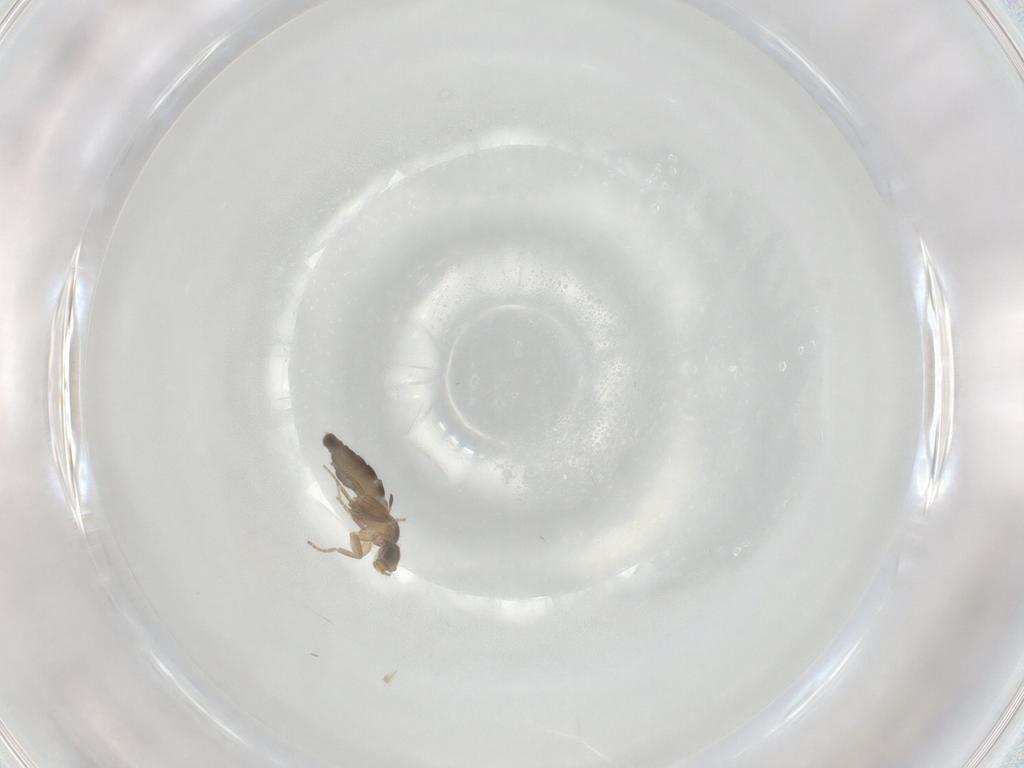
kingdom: Animalia
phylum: Arthropoda
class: Insecta
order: Diptera
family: Phoridae
